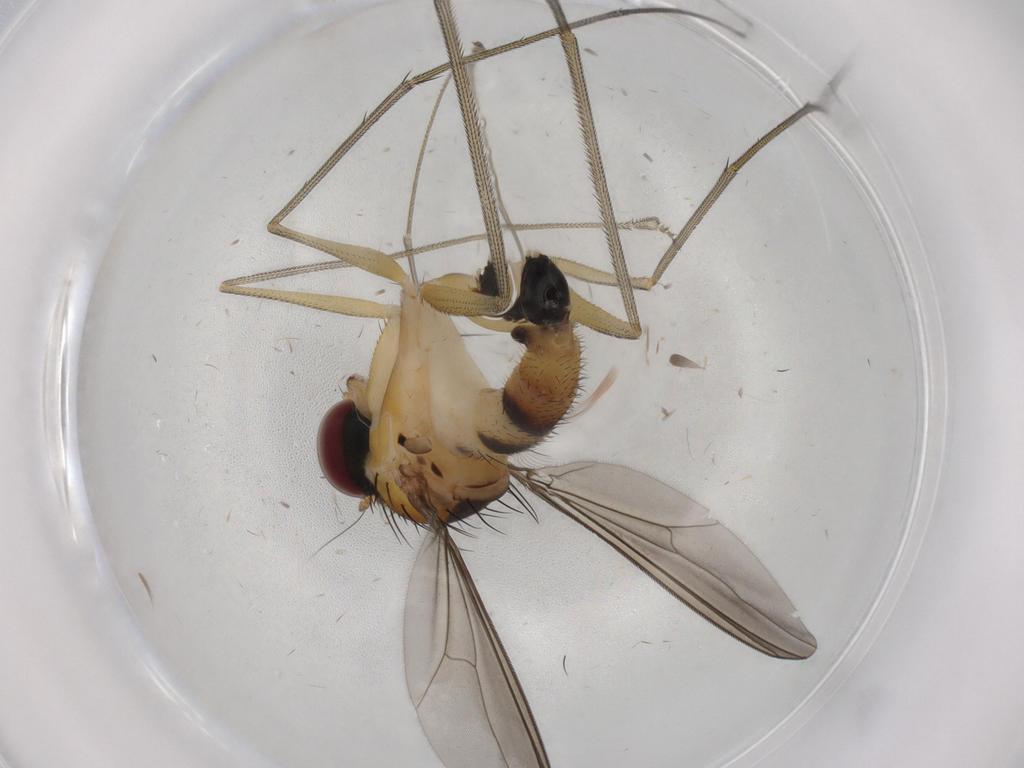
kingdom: Animalia
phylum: Arthropoda
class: Insecta
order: Diptera
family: Dolichopodidae
